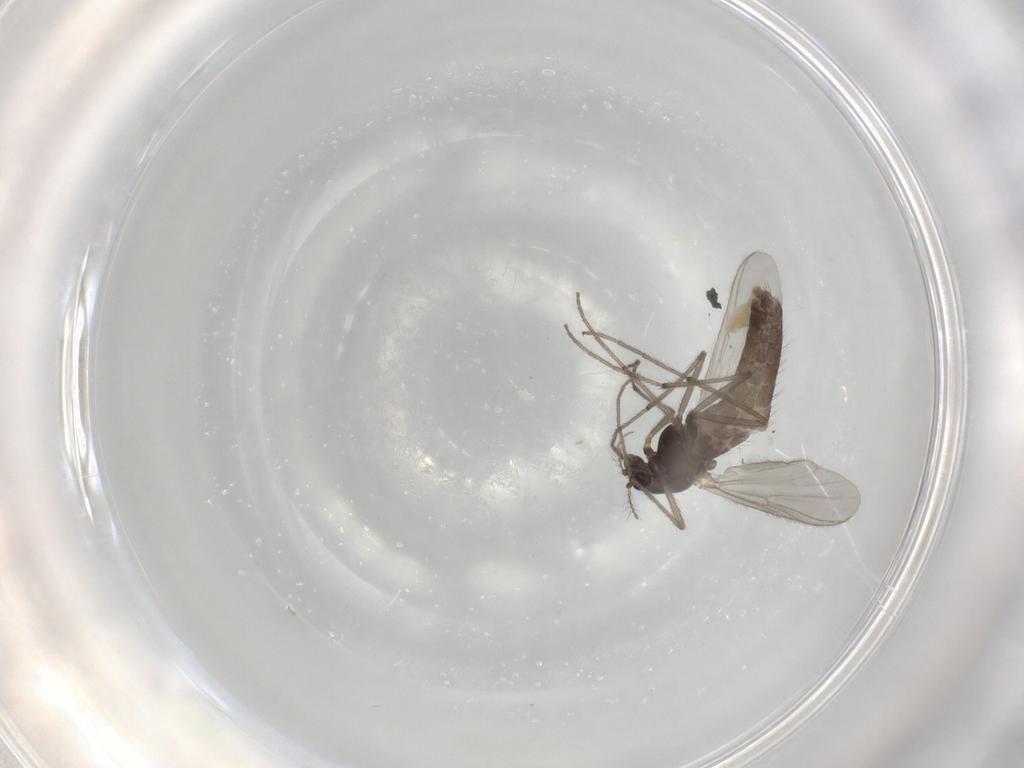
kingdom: Animalia
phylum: Arthropoda
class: Insecta
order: Diptera
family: Chironomidae
